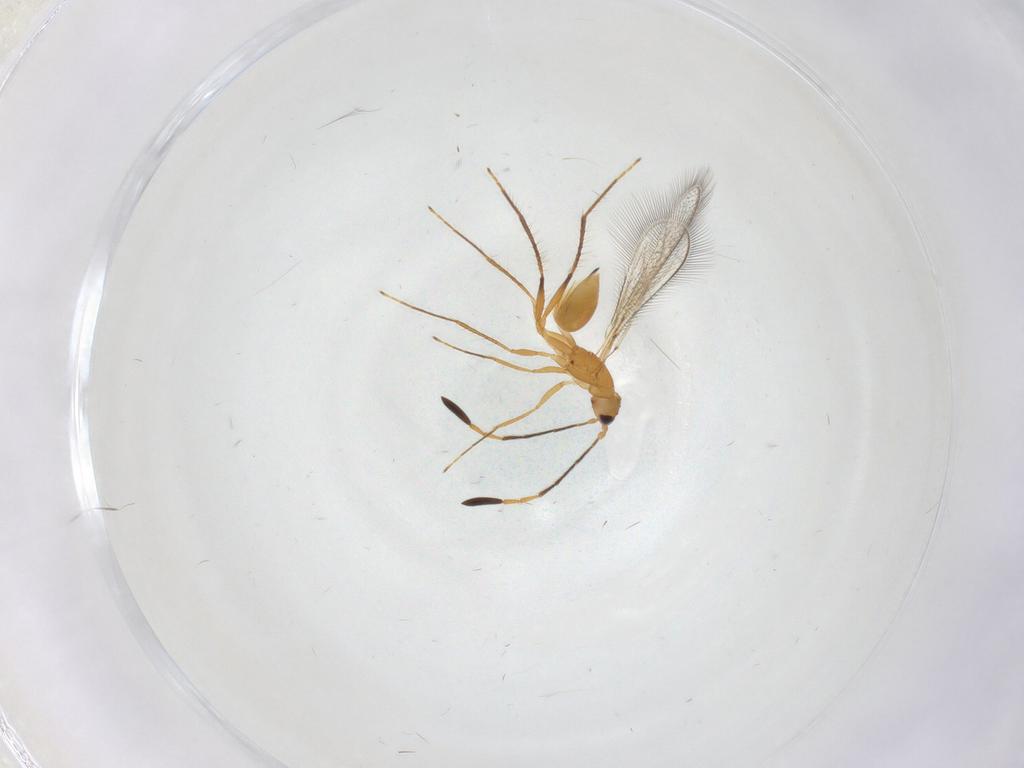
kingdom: Animalia
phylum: Arthropoda
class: Insecta
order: Hymenoptera
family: Mymaridae
